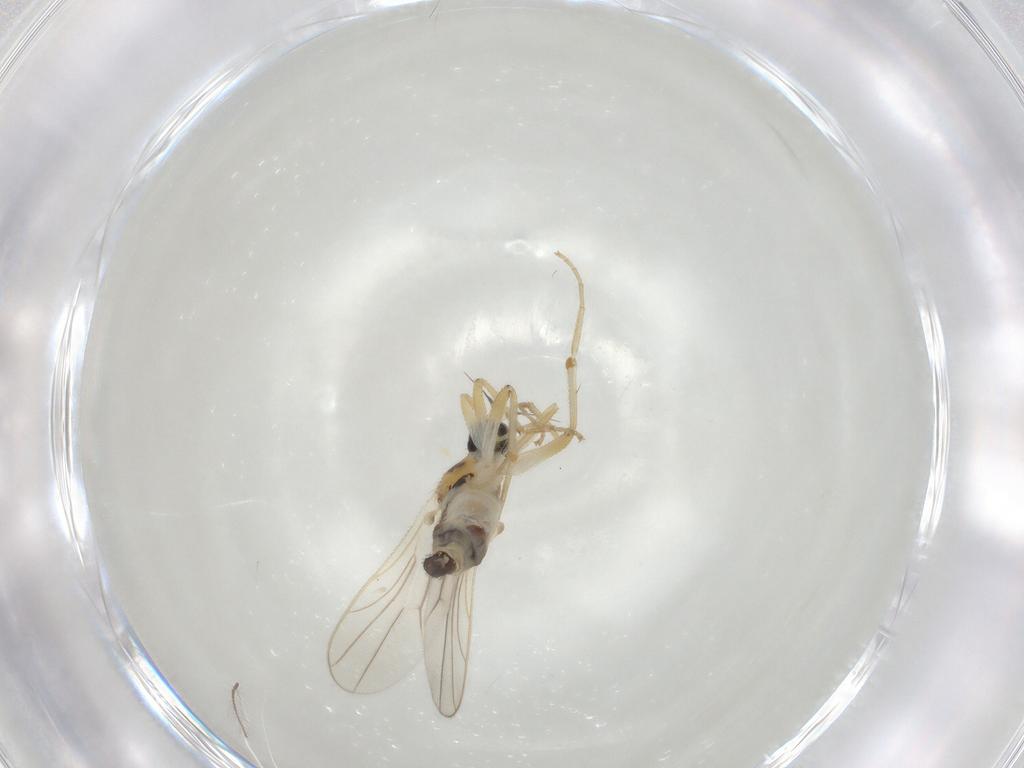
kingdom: Animalia
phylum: Arthropoda
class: Insecta
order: Diptera
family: Hybotidae
